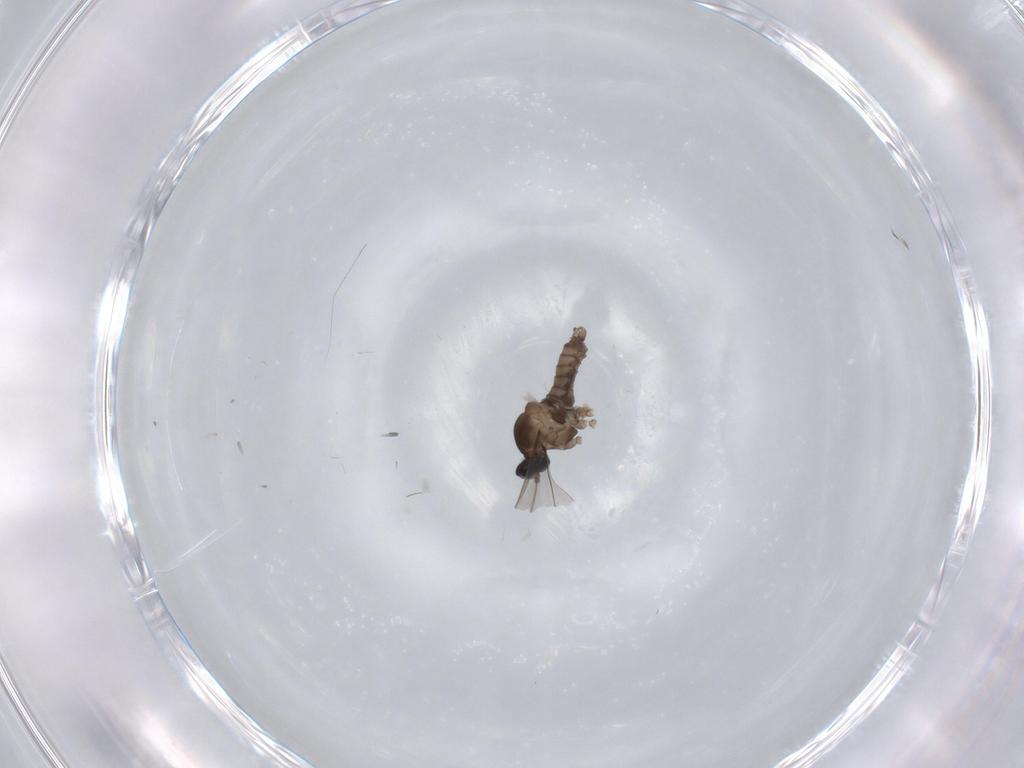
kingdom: Animalia
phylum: Arthropoda
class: Insecta
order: Diptera
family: Cecidomyiidae
